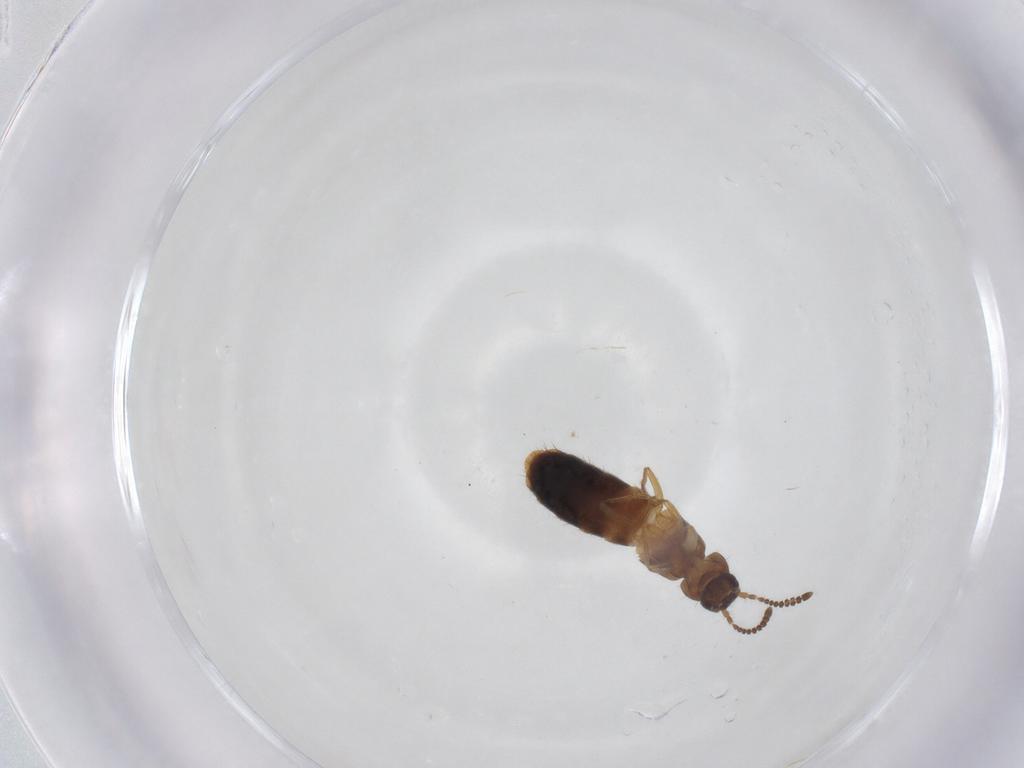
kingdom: Animalia
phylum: Arthropoda
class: Insecta
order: Coleoptera
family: Staphylinidae
